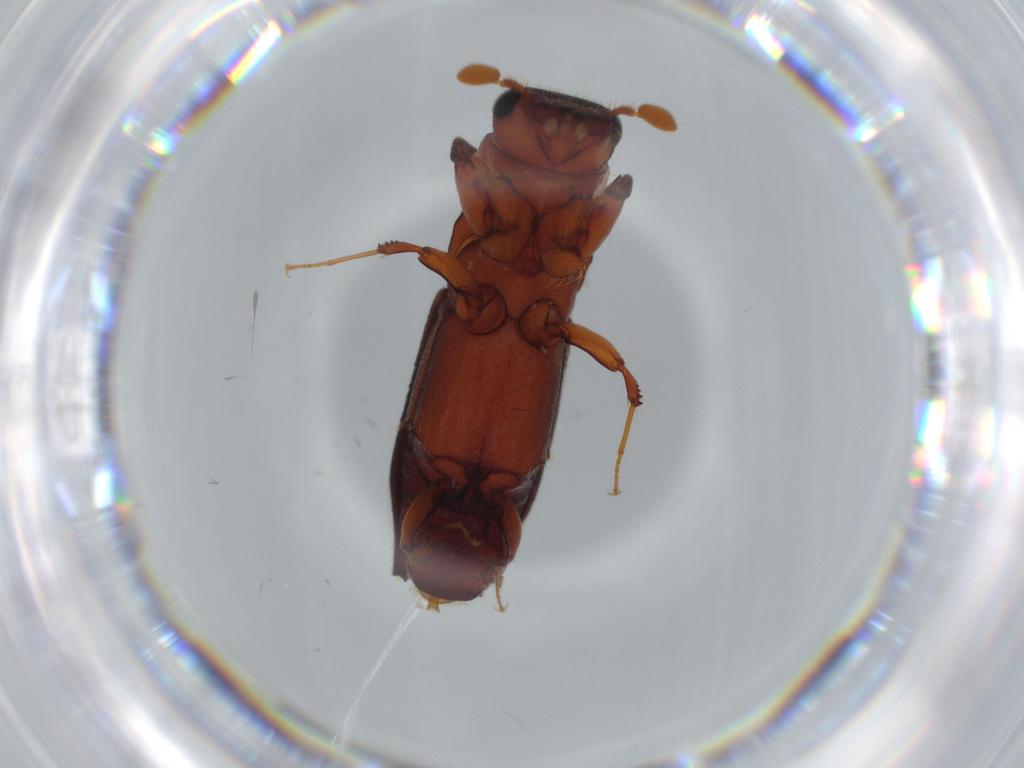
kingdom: Animalia
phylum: Arthropoda
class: Insecta
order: Coleoptera
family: Curculionidae
